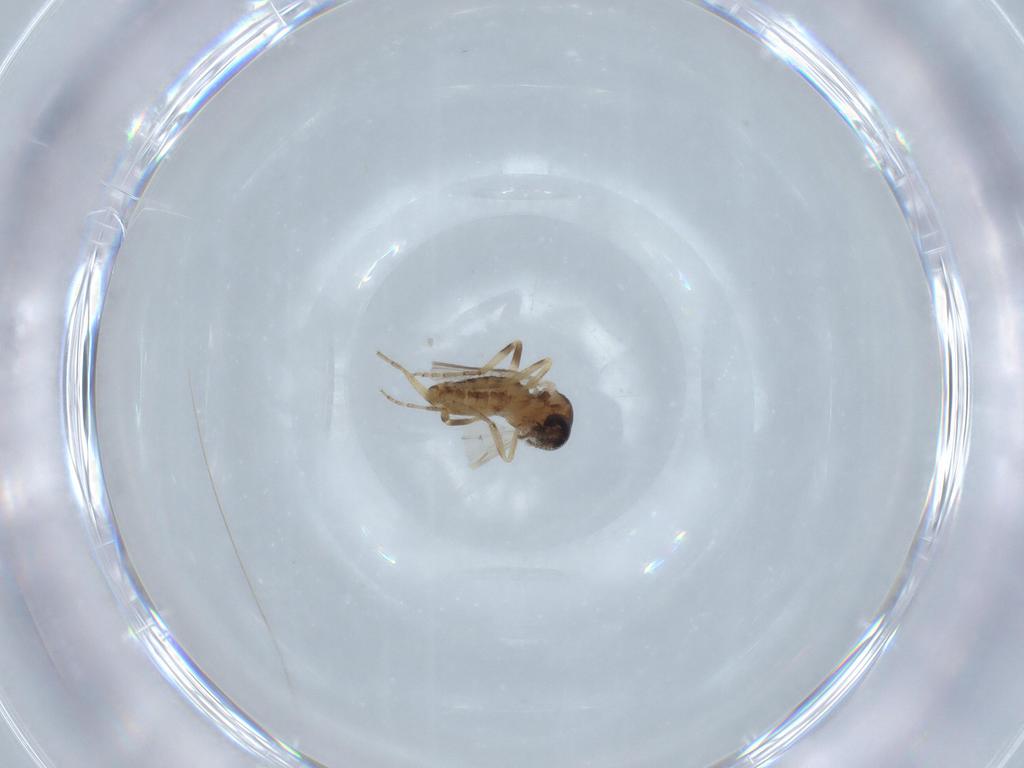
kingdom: Animalia
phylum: Arthropoda
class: Insecta
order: Diptera
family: Ceratopogonidae
